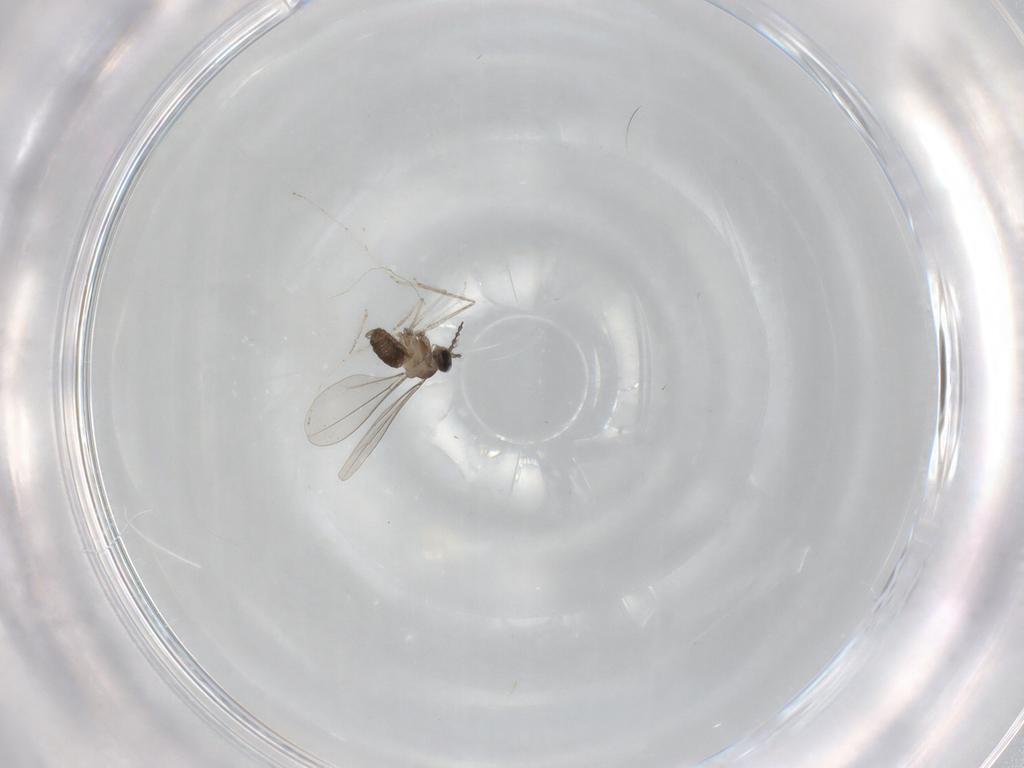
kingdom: Animalia
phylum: Arthropoda
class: Insecta
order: Diptera
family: Cecidomyiidae
